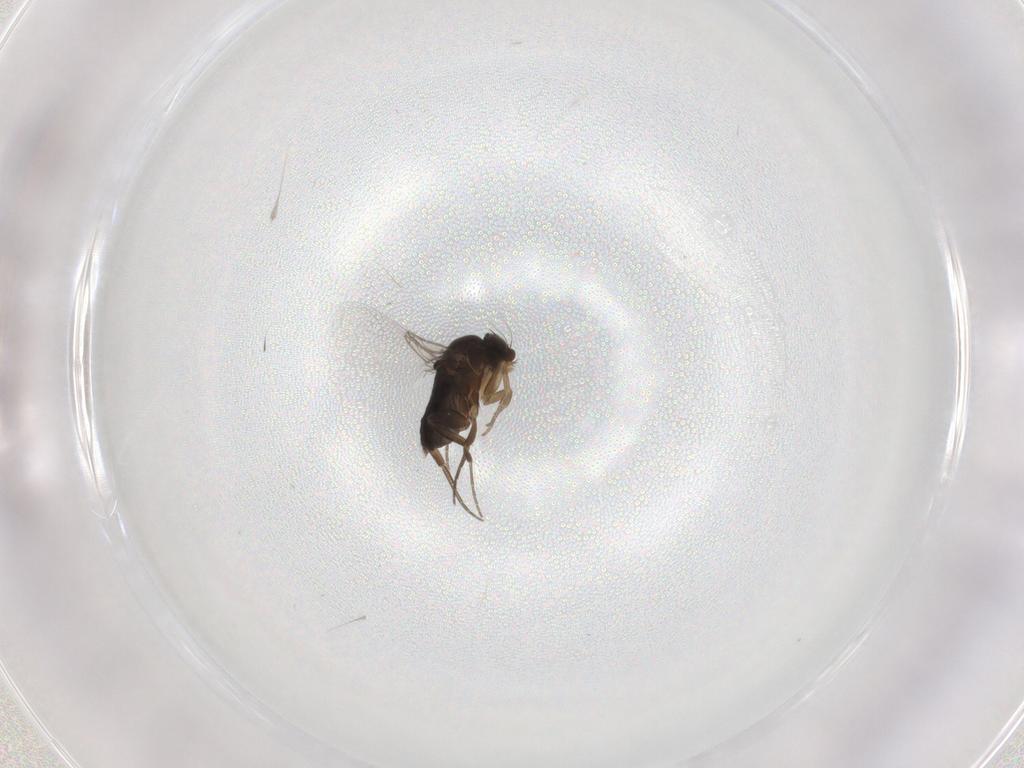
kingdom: Animalia
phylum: Arthropoda
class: Insecta
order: Diptera
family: Phoridae
